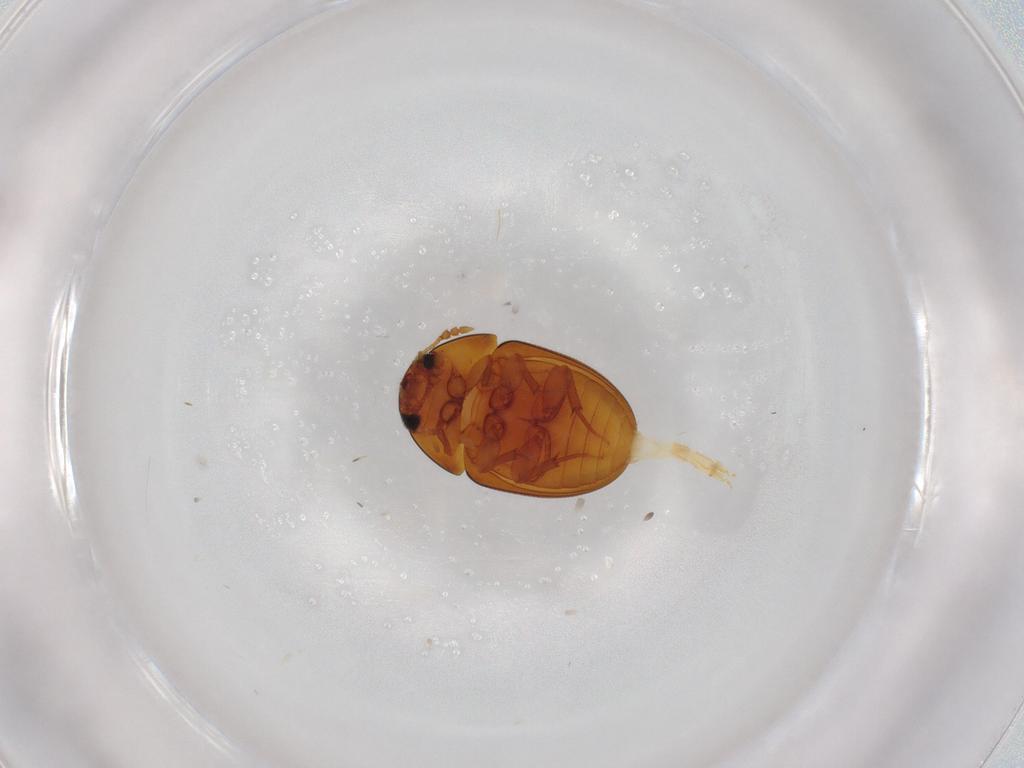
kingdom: Animalia
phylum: Arthropoda
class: Insecta
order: Coleoptera
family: Phalacridae
